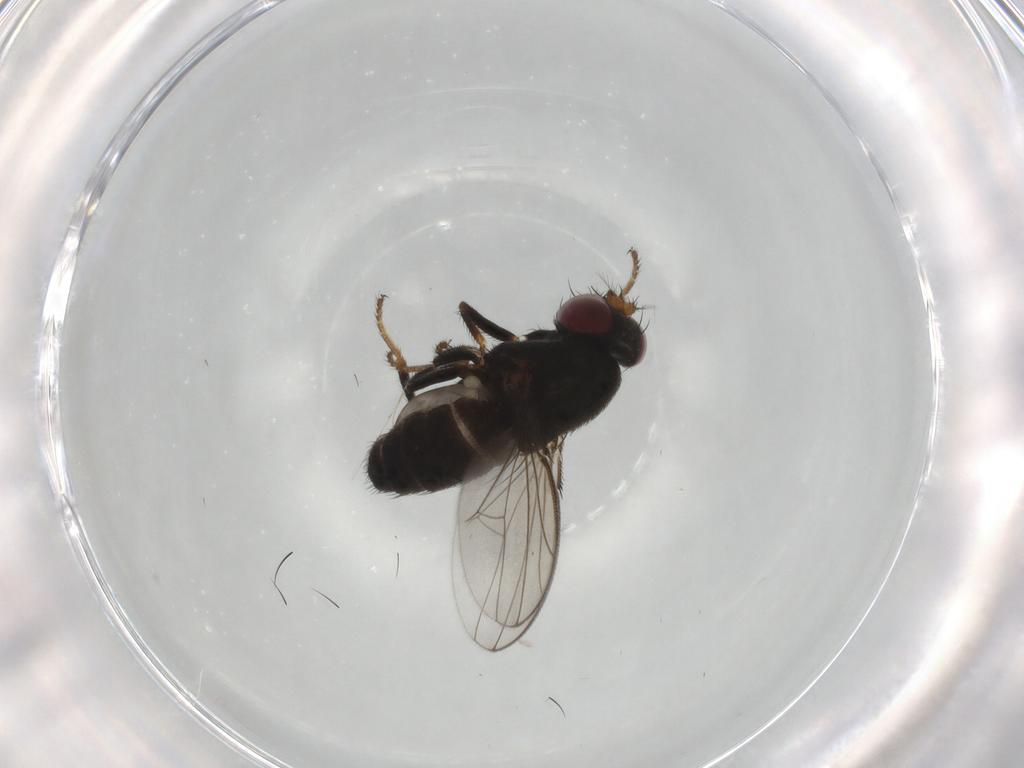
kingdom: Animalia
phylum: Arthropoda
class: Insecta
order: Diptera
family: Ephydridae
